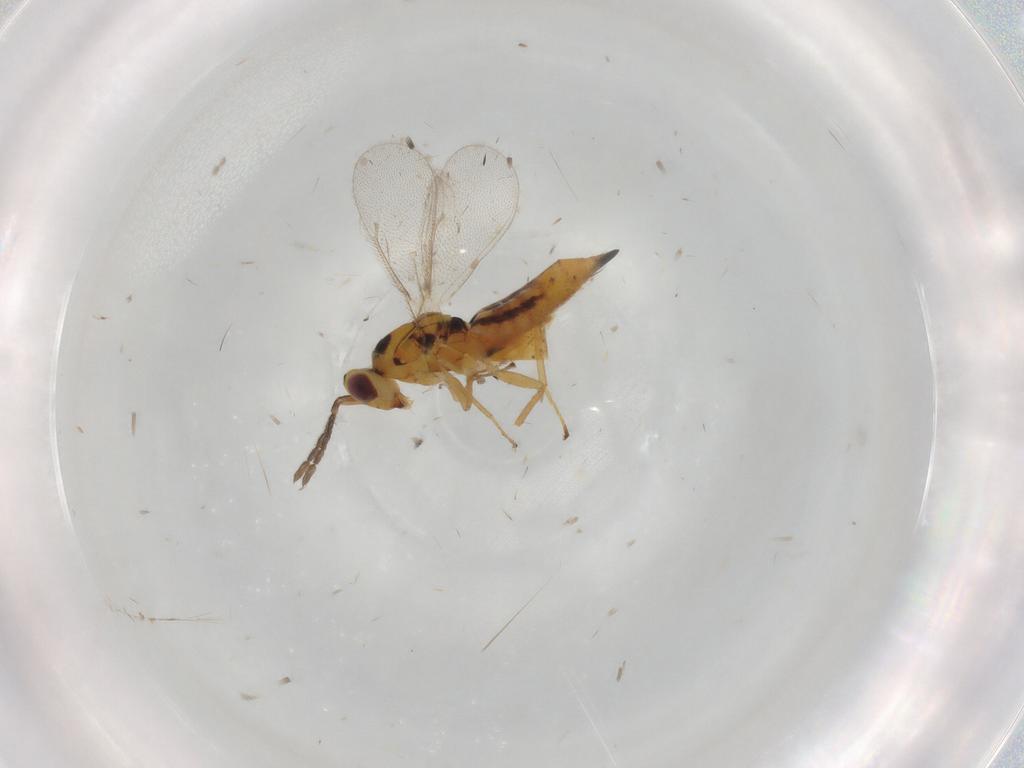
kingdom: Animalia
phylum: Arthropoda
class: Insecta
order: Hymenoptera
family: Eulophidae
